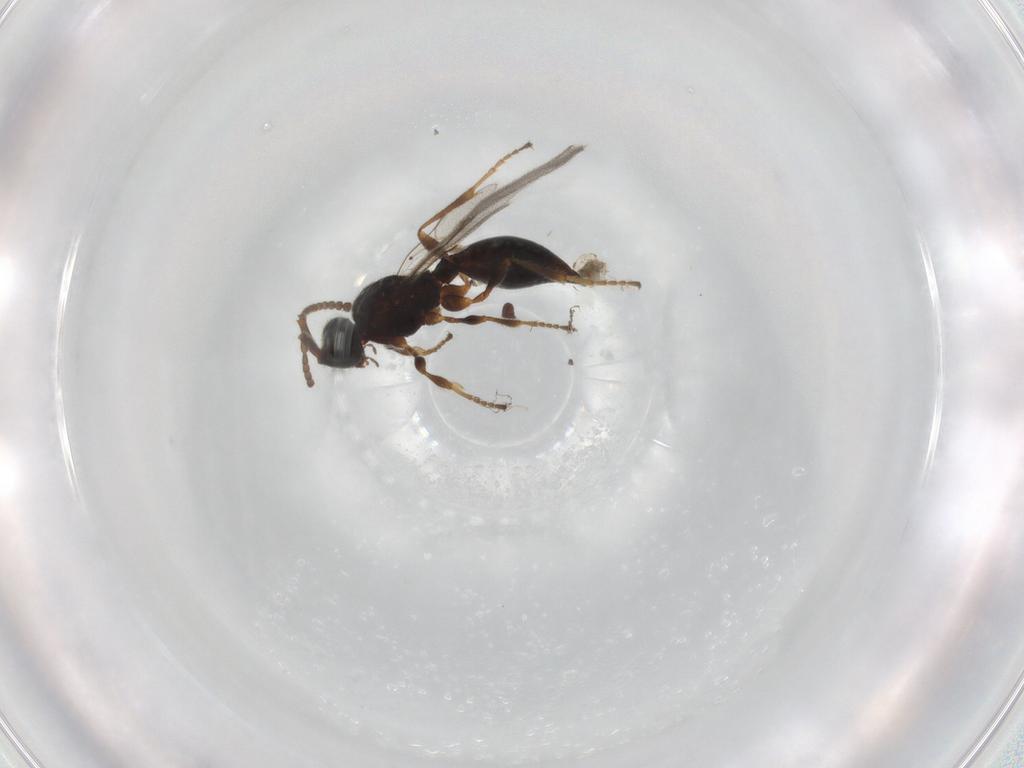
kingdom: Animalia
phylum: Arthropoda
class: Insecta
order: Hymenoptera
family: Diapriidae
